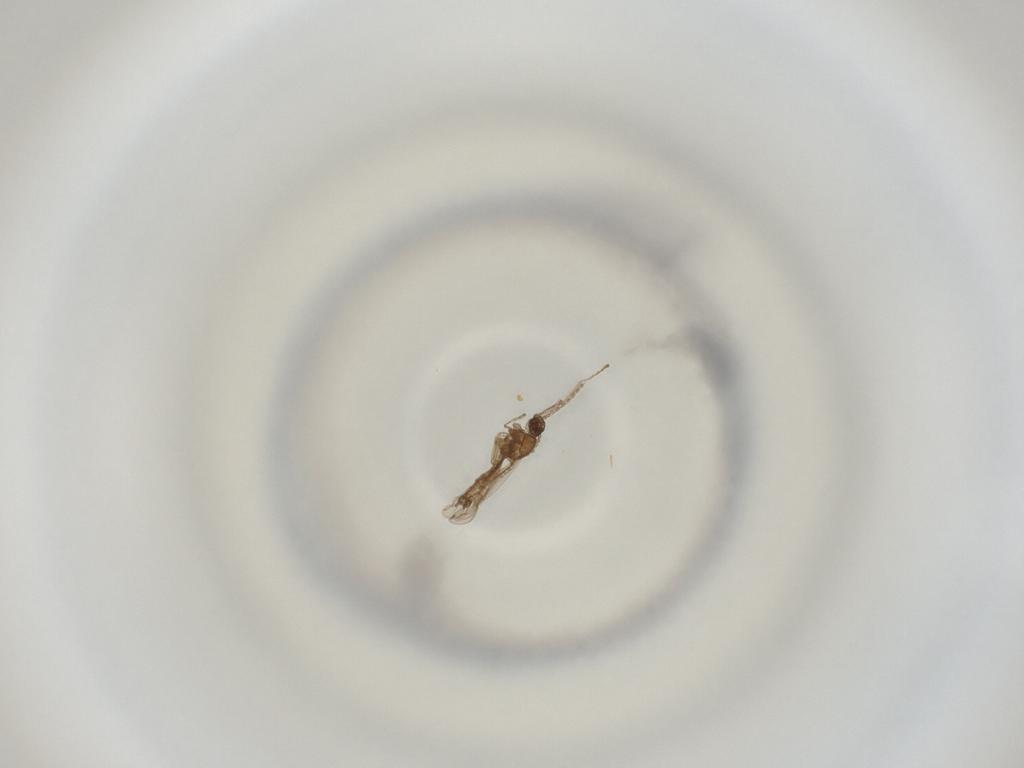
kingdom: Animalia
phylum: Arthropoda
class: Insecta
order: Diptera
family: Cecidomyiidae
